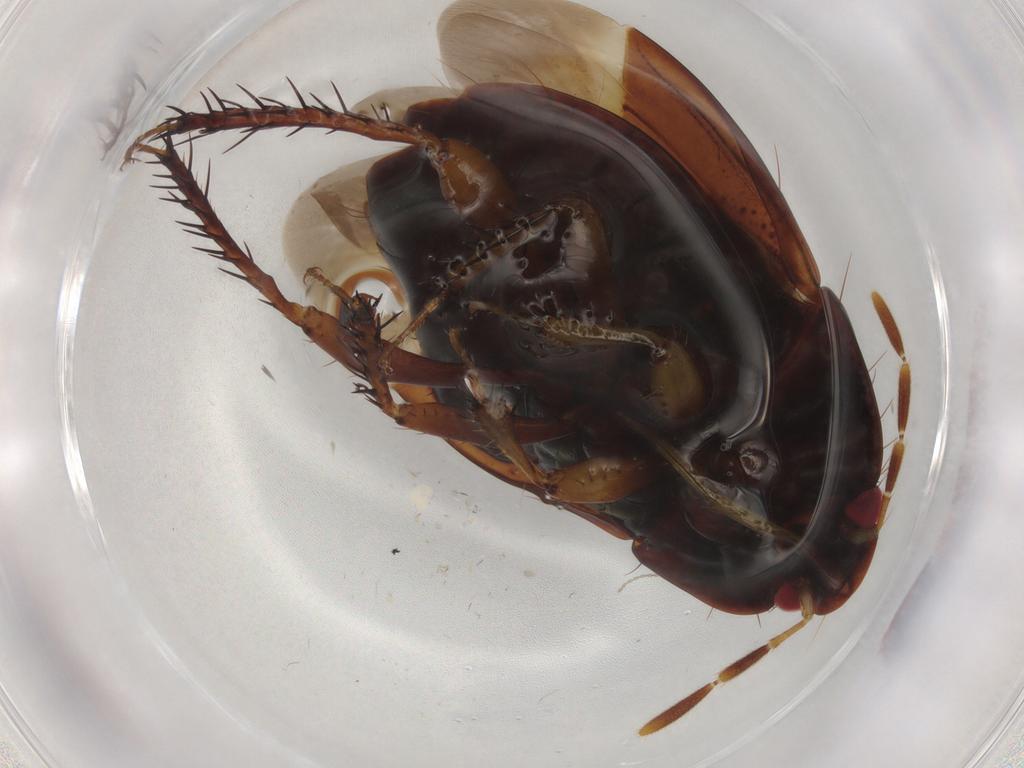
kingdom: Animalia
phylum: Arthropoda
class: Insecta
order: Hemiptera
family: Cydnidae
